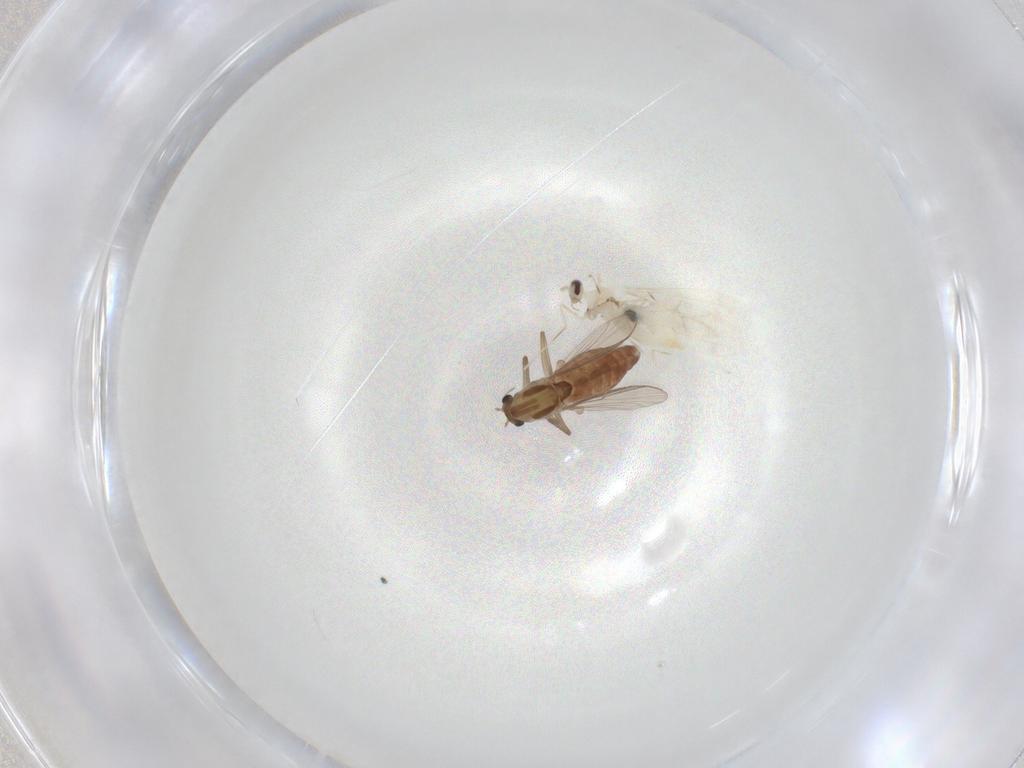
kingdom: Animalia
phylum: Arthropoda
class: Insecta
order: Diptera
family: Cecidomyiidae
